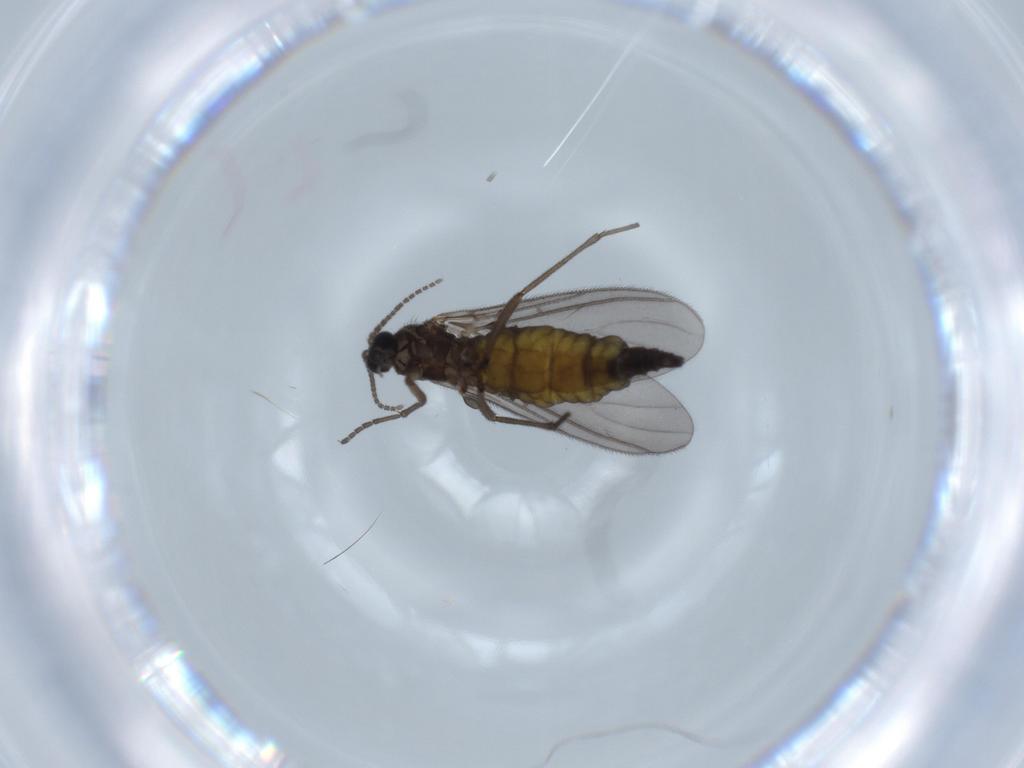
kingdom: Animalia
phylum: Arthropoda
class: Insecta
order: Diptera
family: Sciaridae
